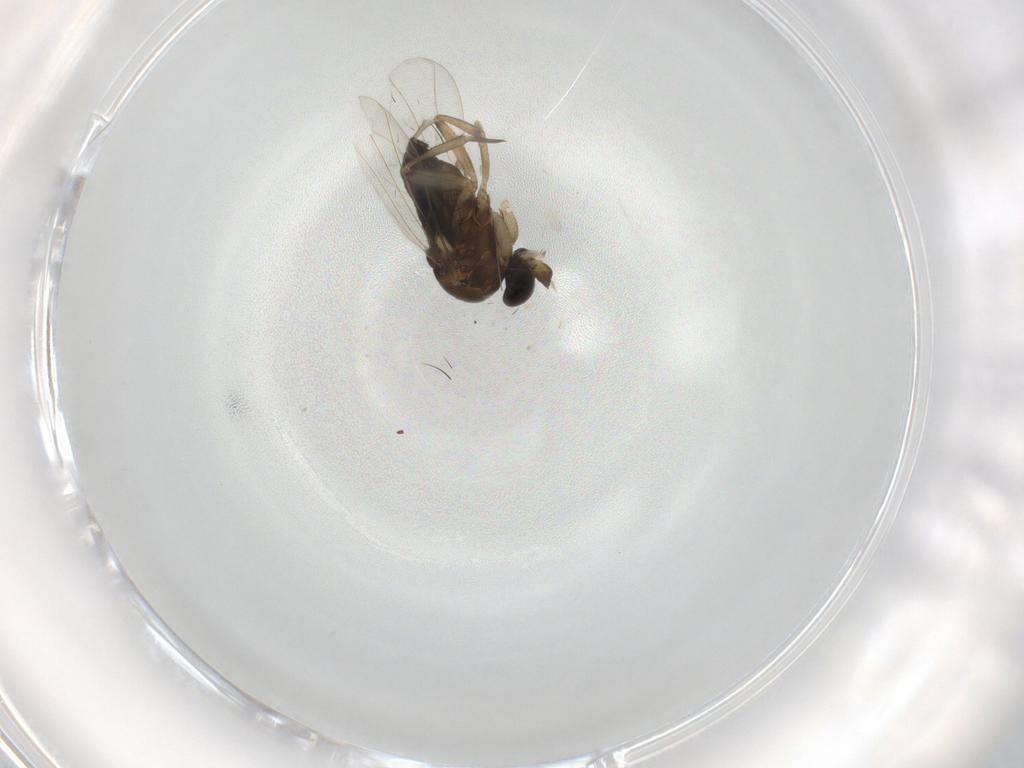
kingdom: Animalia
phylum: Arthropoda
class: Insecta
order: Diptera
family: Phoridae
